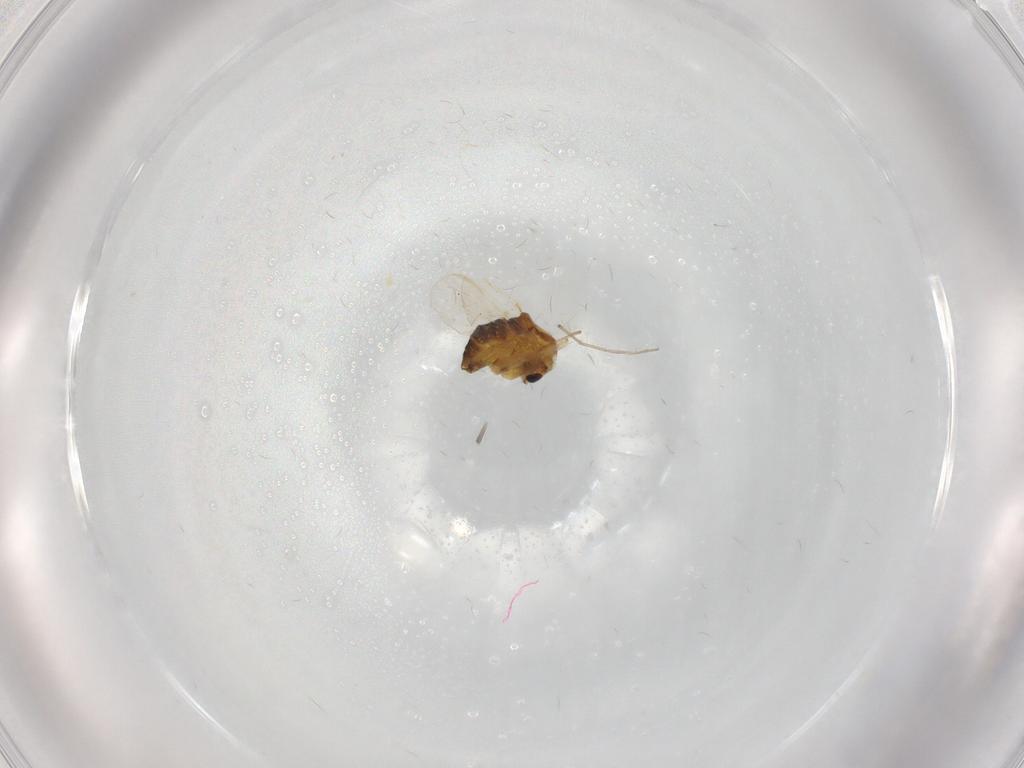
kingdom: Animalia
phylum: Arthropoda
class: Insecta
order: Diptera
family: Chironomidae
